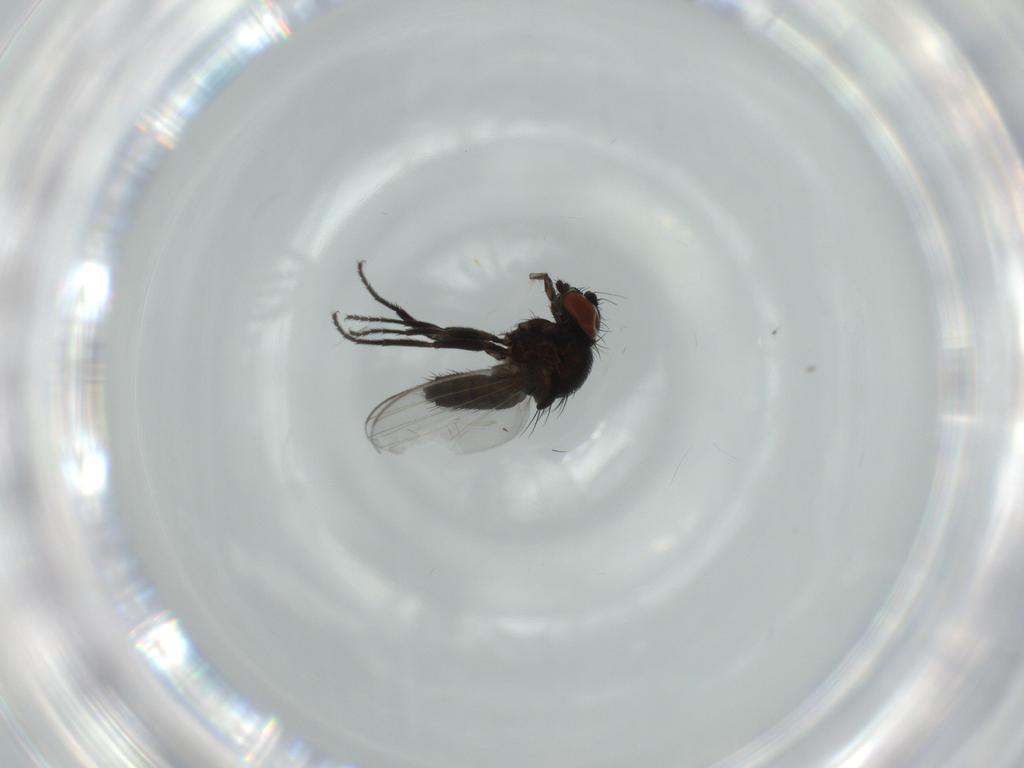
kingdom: Animalia
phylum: Arthropoda
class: Insecta
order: Diptera
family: Milichiidae
